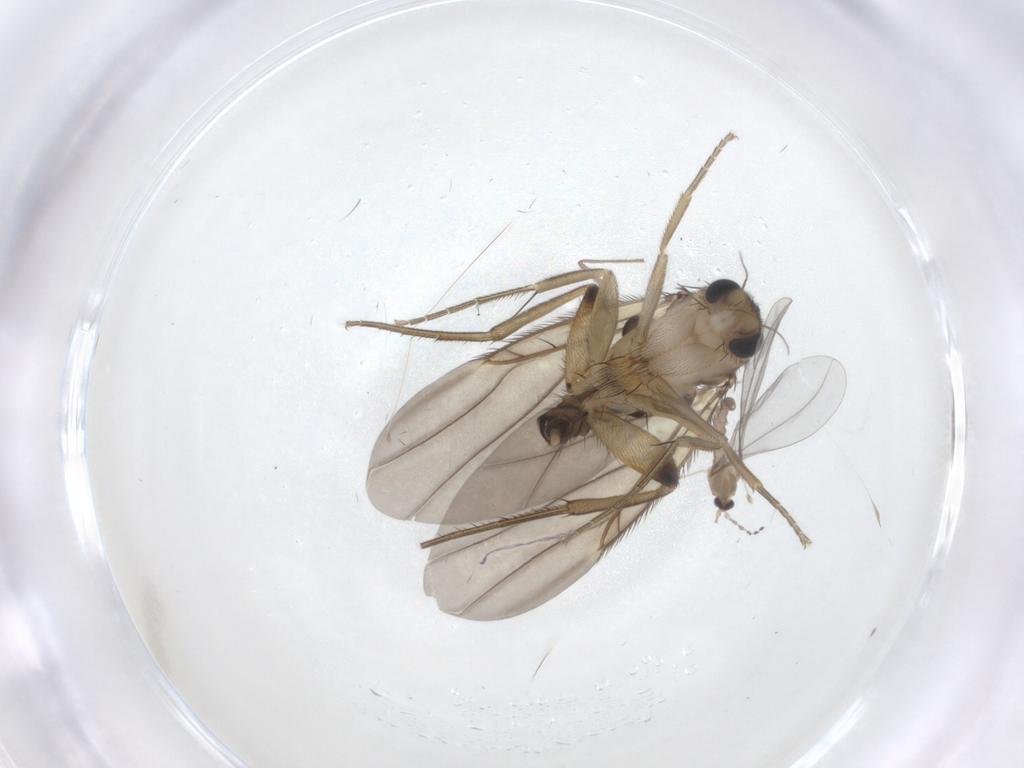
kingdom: Animalia
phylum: Arthropoda
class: Insecta
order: Diptera
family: Phoridae
